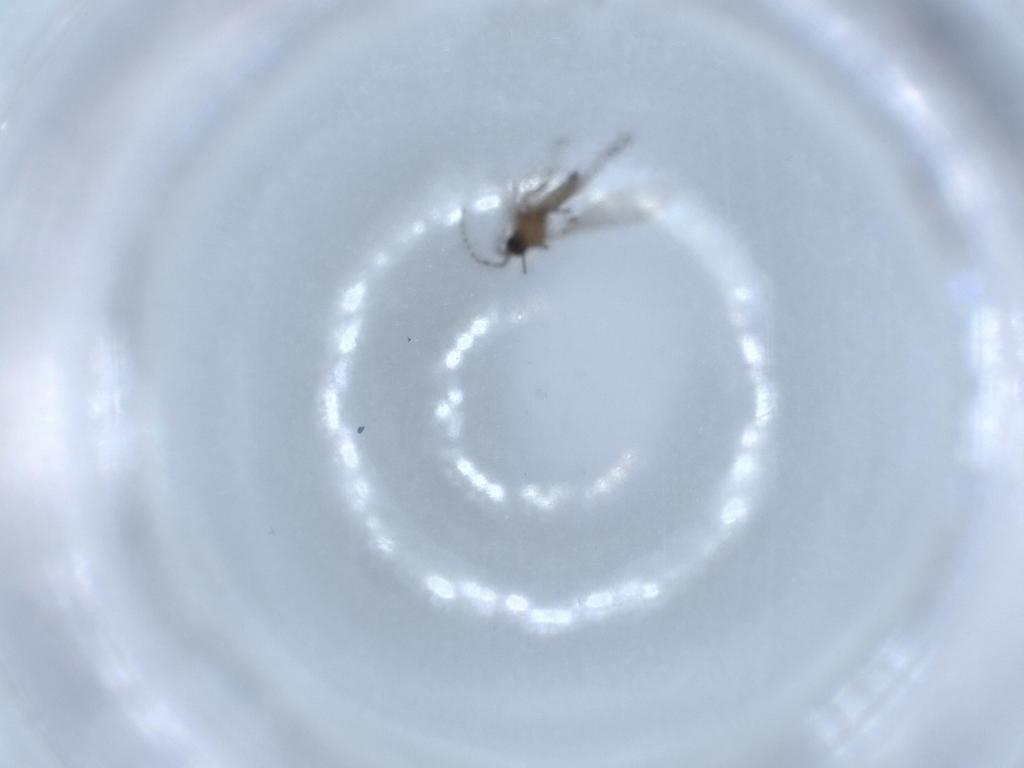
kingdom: Animalia
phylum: Arthropoda
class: Insecta
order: Diptera
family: Sciaridae
